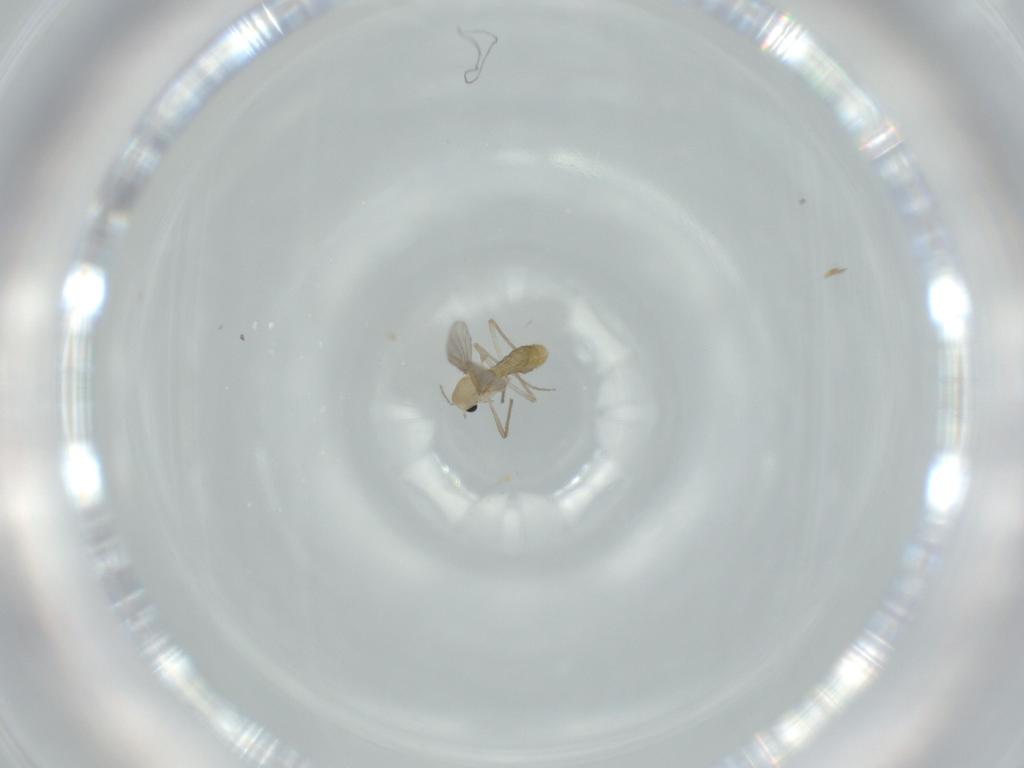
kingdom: Animalia
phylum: Arthropoda
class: Insecta
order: Diptera
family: Chironomidae
